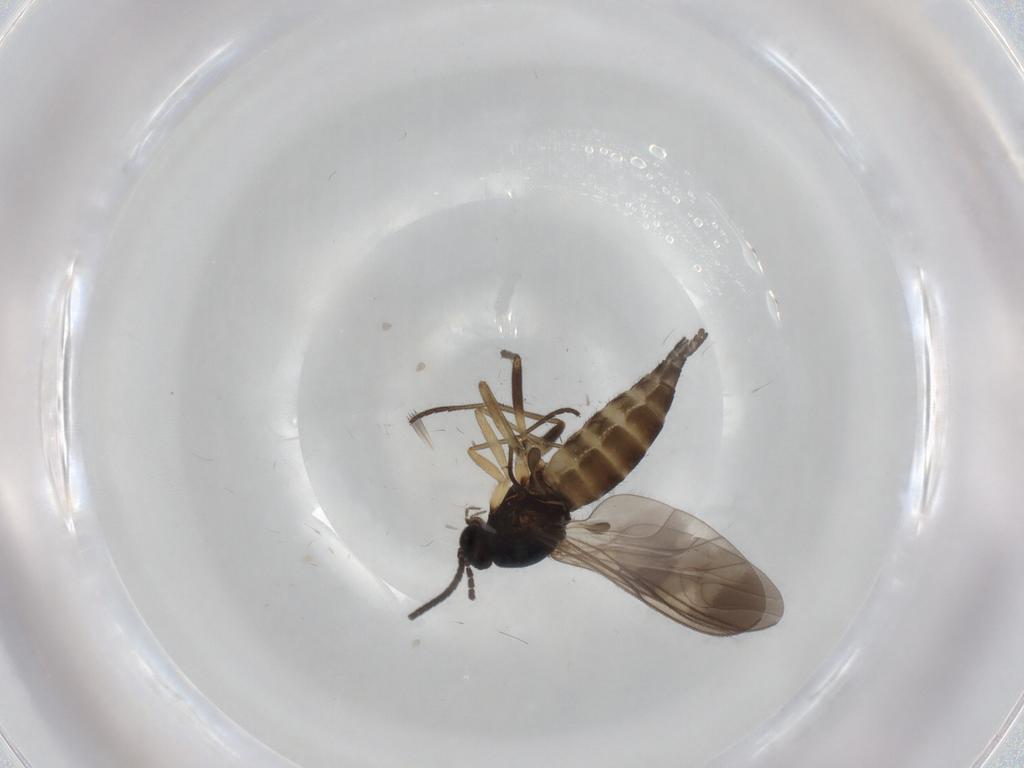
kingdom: Animalia
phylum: Arthropoda
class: Insecta
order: Diptera
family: Sciaridae
